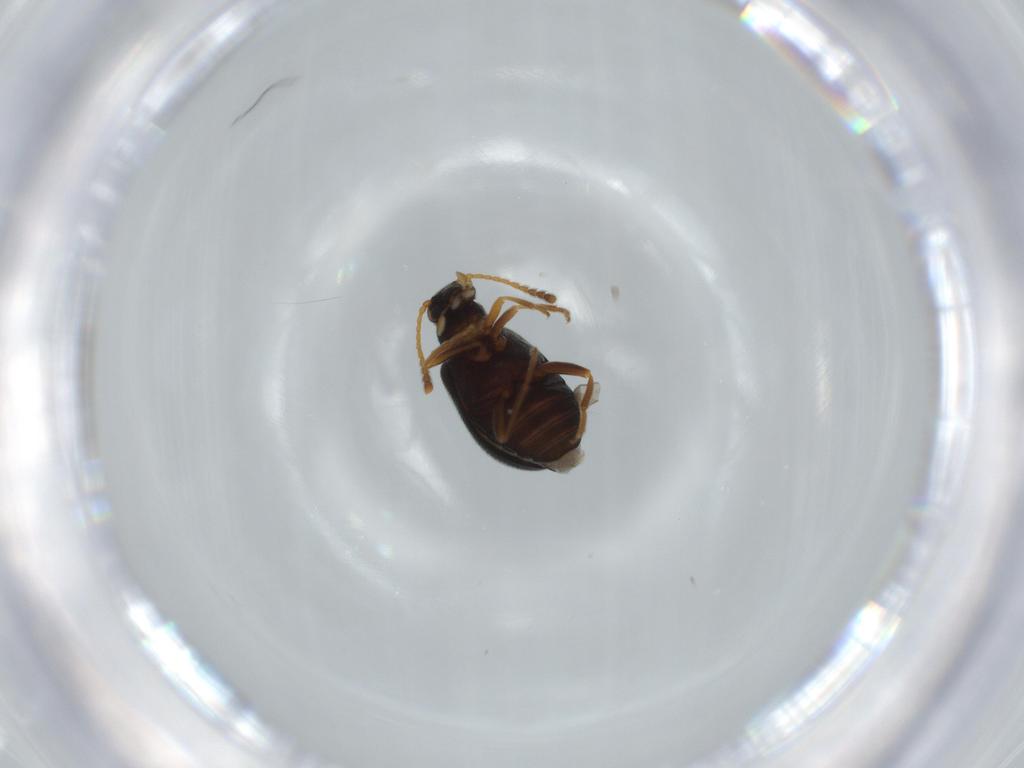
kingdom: Animalia
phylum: Arthropoda
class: Insecta
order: Coleoptera
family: Aderidae
